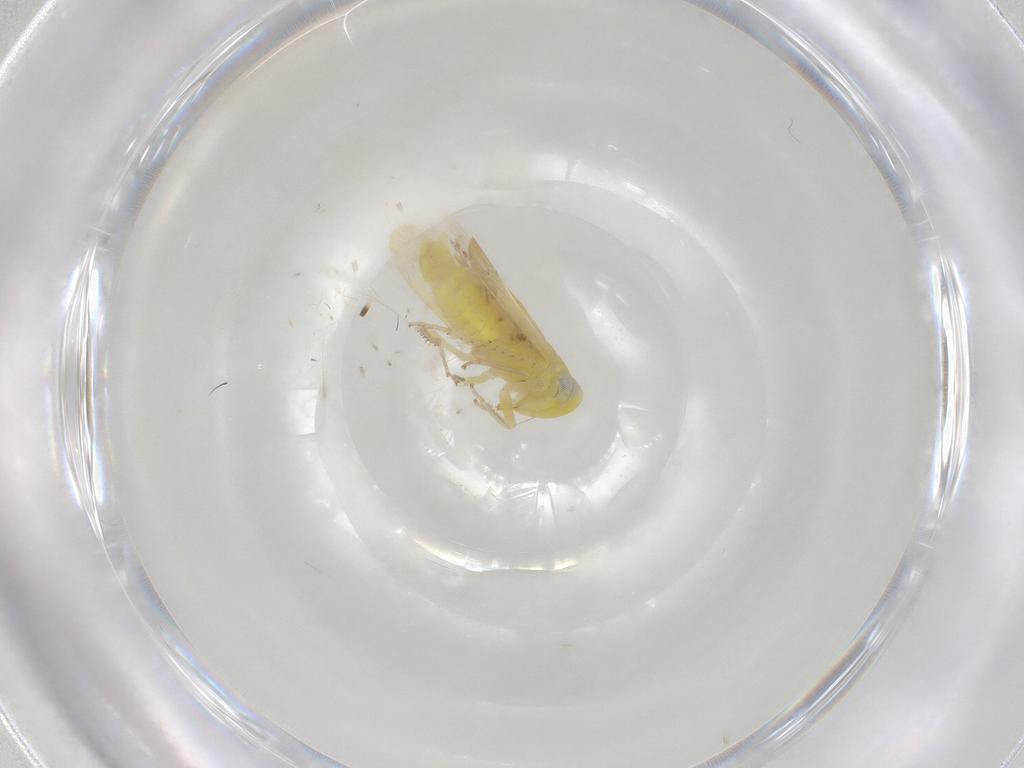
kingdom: Animalia
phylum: Arthropoda
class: Insecta
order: Hemiptera
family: Cicadellidae
